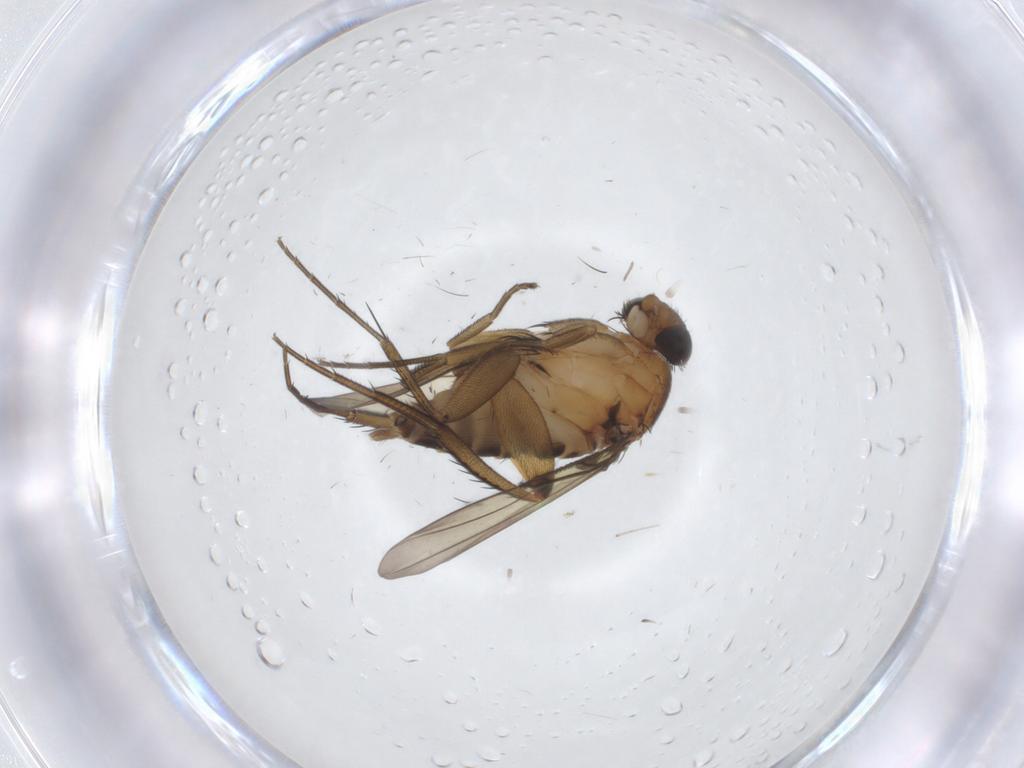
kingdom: Animalia
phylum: Arthropoda
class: Insecta
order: Diptera
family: Chironomidae
